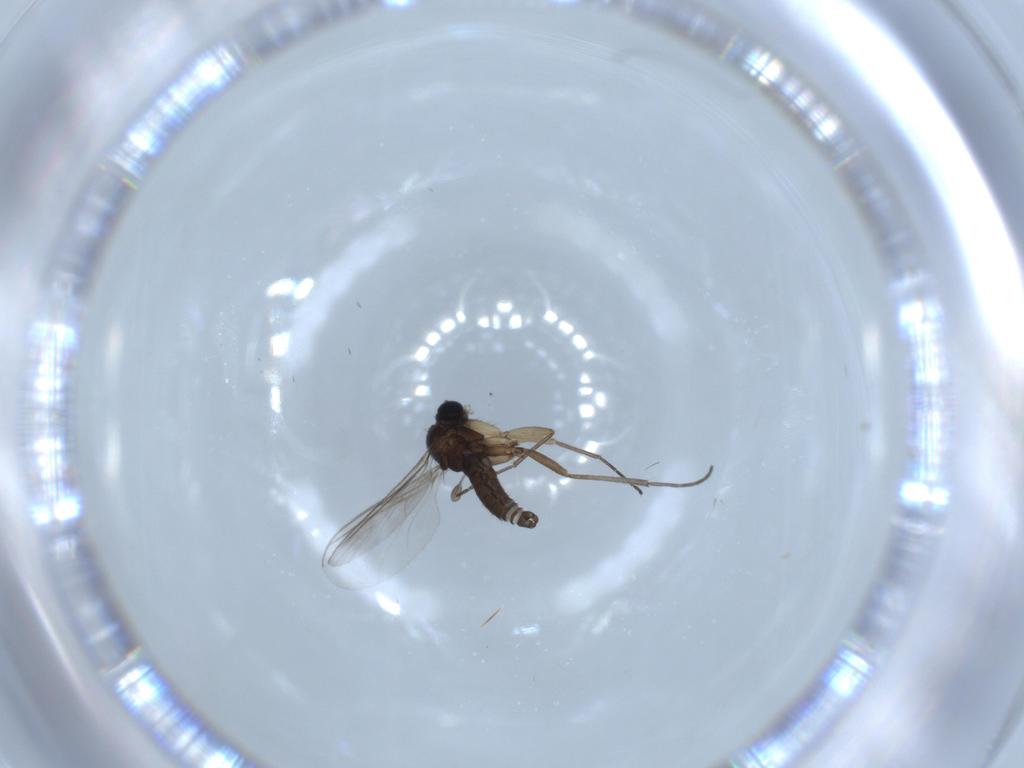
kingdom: Animalia
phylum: Arthropoda
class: Insecta
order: Diptera
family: Sciaridae
